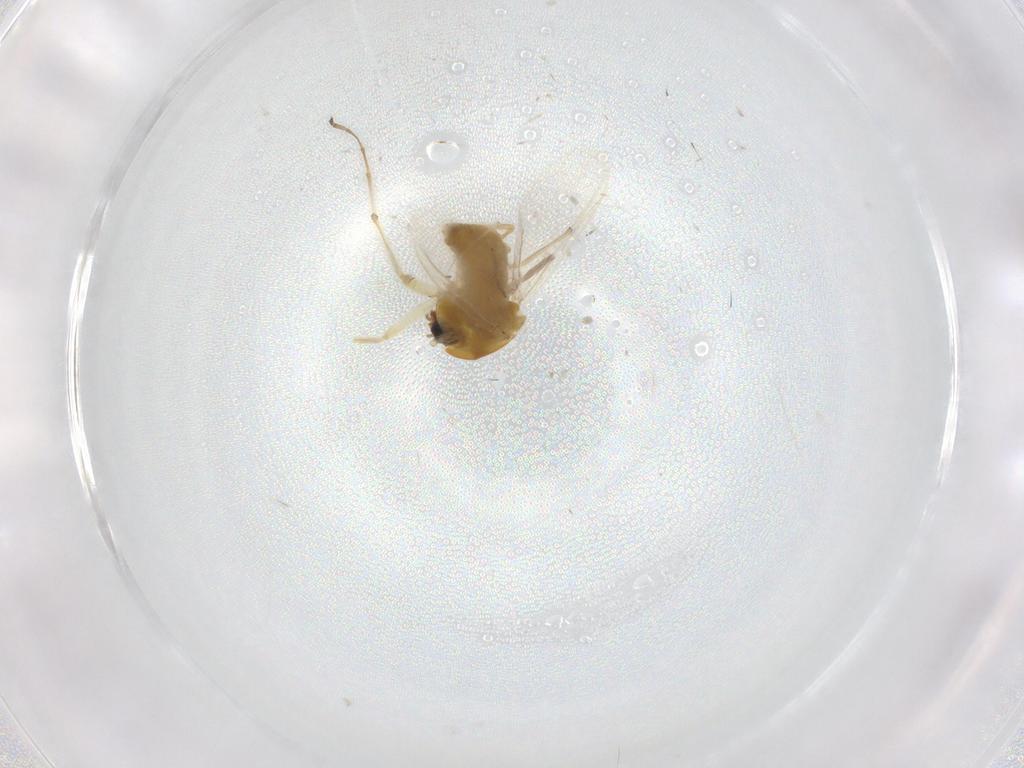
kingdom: Animalia
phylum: Arthropoda
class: Insecta
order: Diptera
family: Chironomidae
